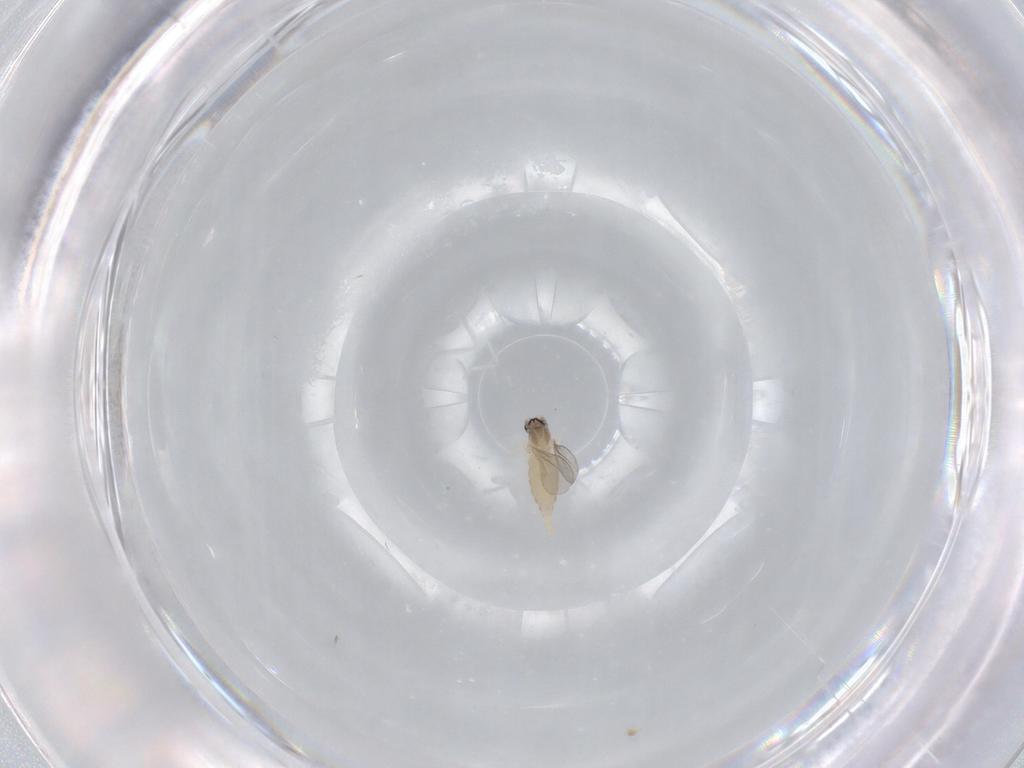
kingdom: Animalia
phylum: Arthropoda
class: Insecta
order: Diptera
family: Cecidomyiidae
